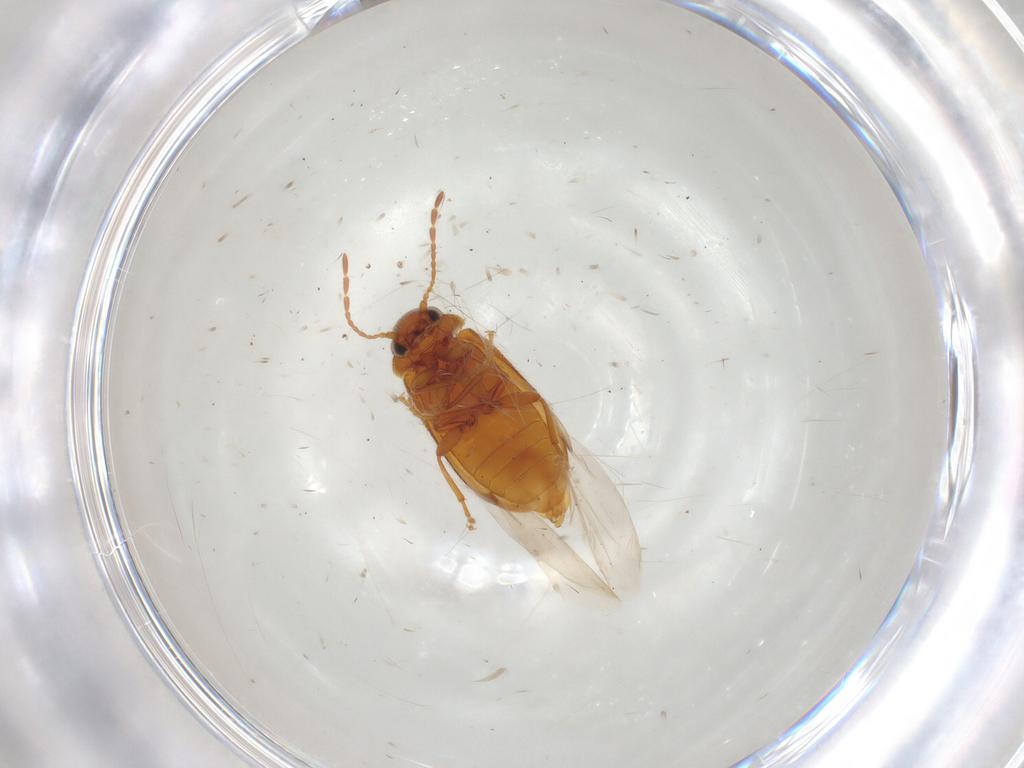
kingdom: Animalia
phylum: Arthropoda
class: Insecta
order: Coleoptera
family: Ptinidae
